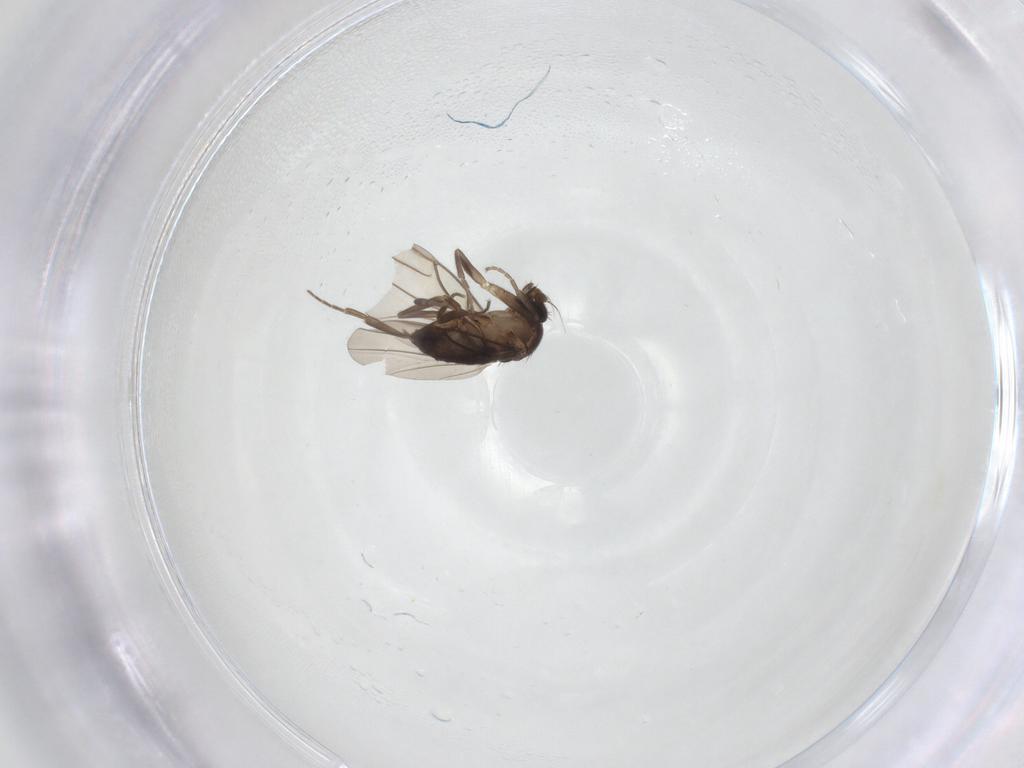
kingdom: Animalia
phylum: Arthropoda
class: Insecta
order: Diptera
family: Phoridae
